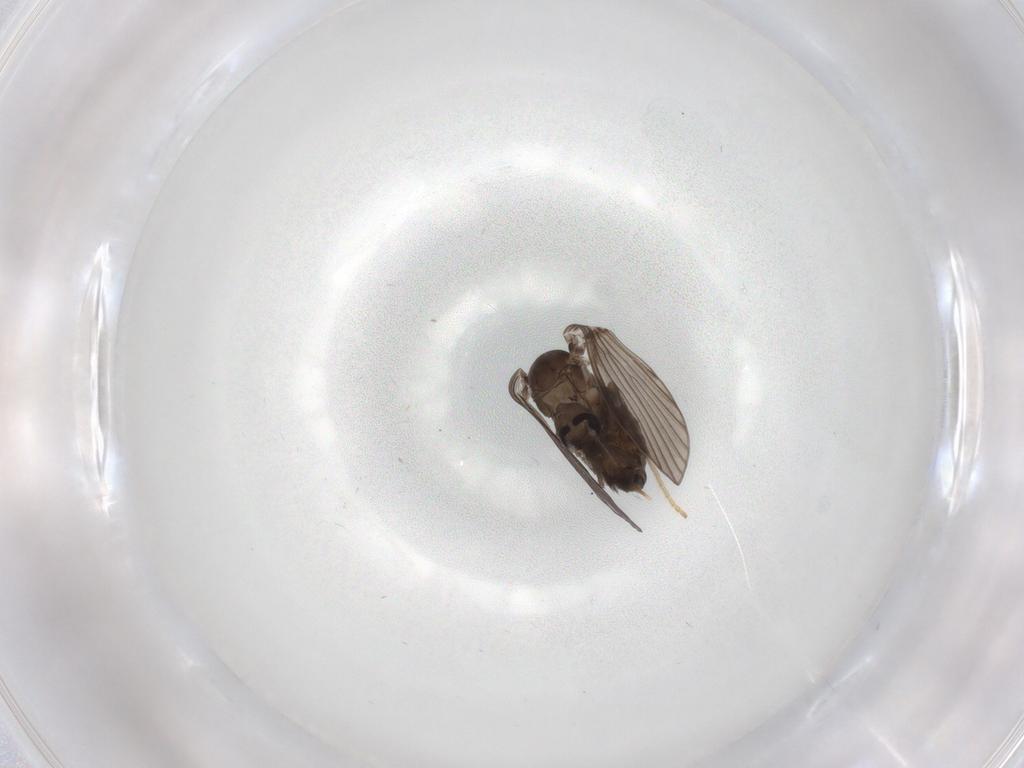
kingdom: Animalia
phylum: Arthropoda
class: Insecta
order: Diptera
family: Psychodidae
